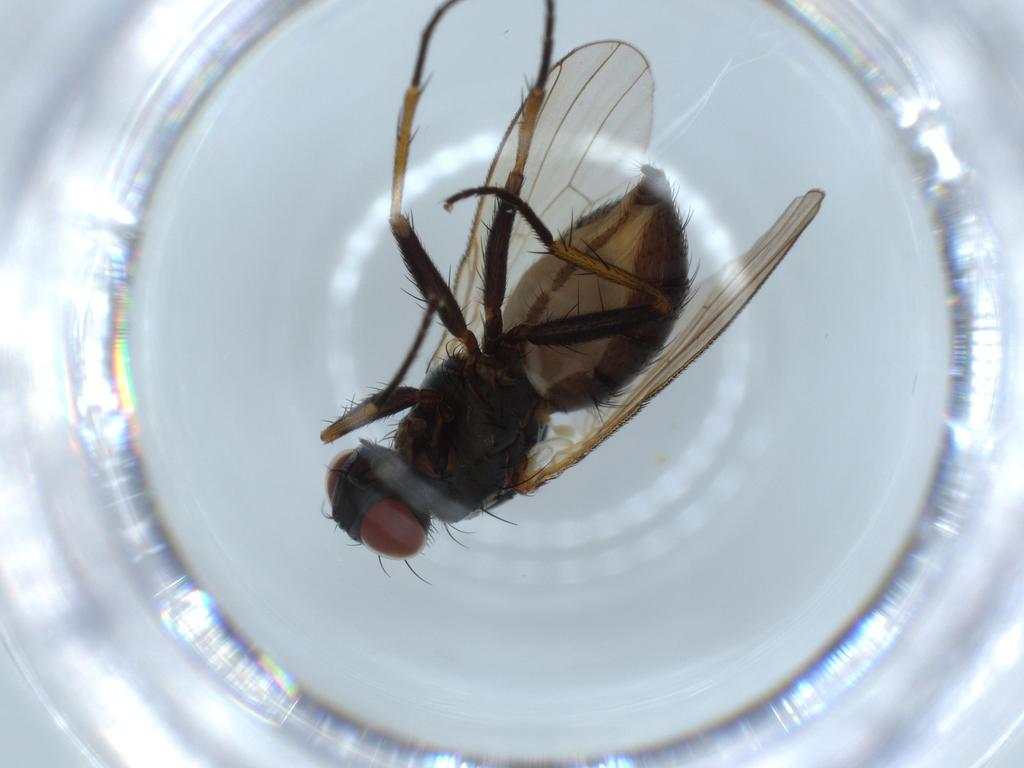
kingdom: Animalia
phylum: Arthropoda
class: Insecta
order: Diptera
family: Muscidae
